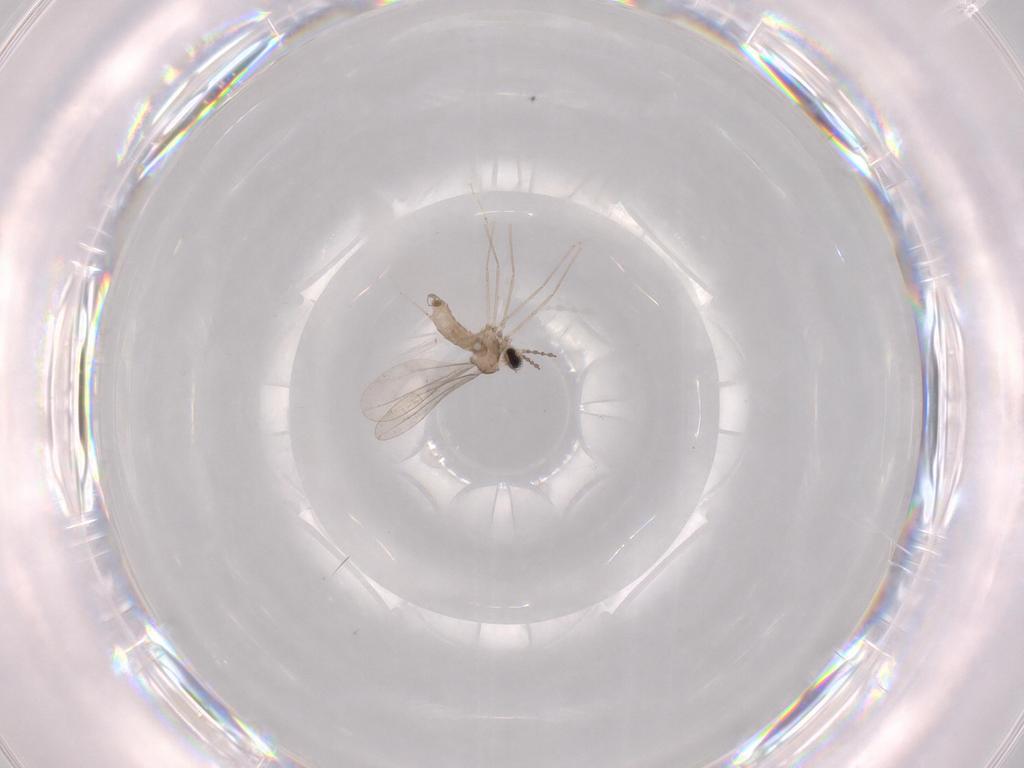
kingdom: Animalia
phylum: Arthropoda
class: Insecta
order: Diptera
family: Cecidomyiidae
